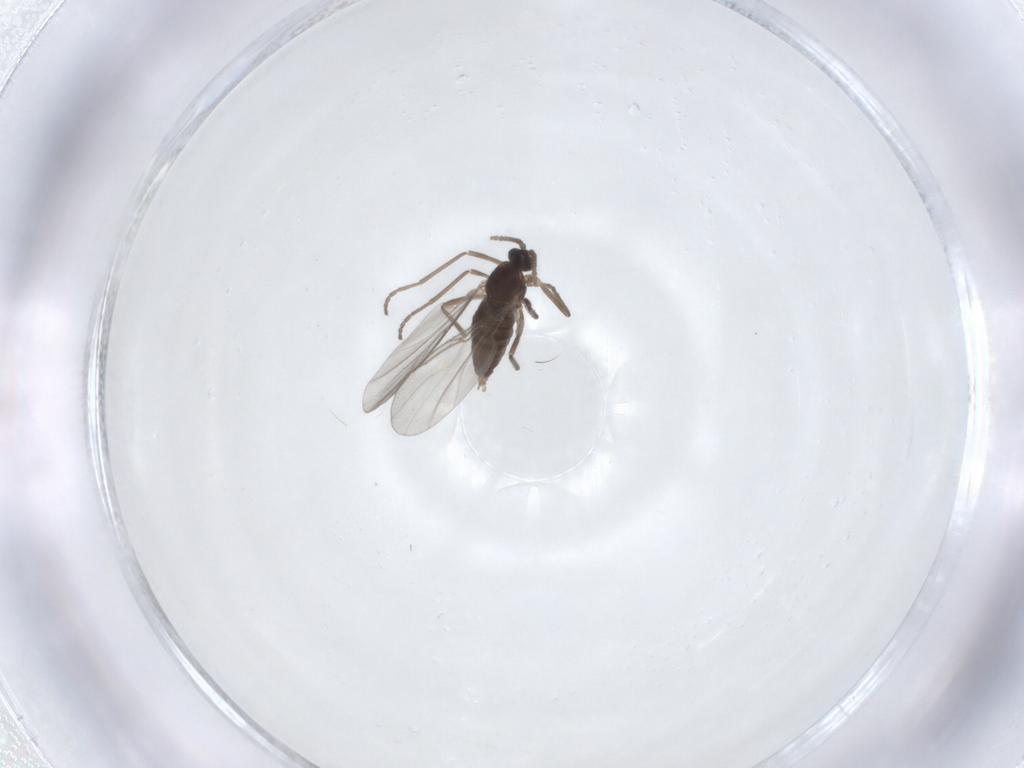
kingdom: Animalia
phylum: Arthropoda
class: Insecta
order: Diptera
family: Cecidomyiidae
